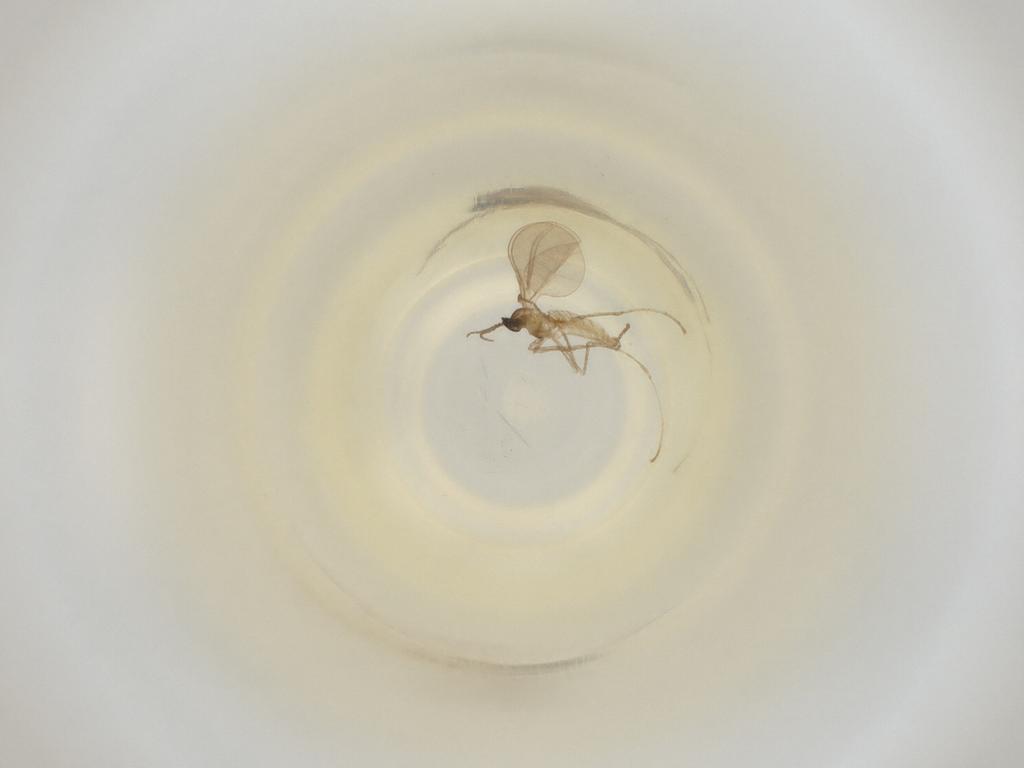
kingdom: Animalia
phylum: Arthropoda
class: Insecta
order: Diptera
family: Cecidomyiidae
